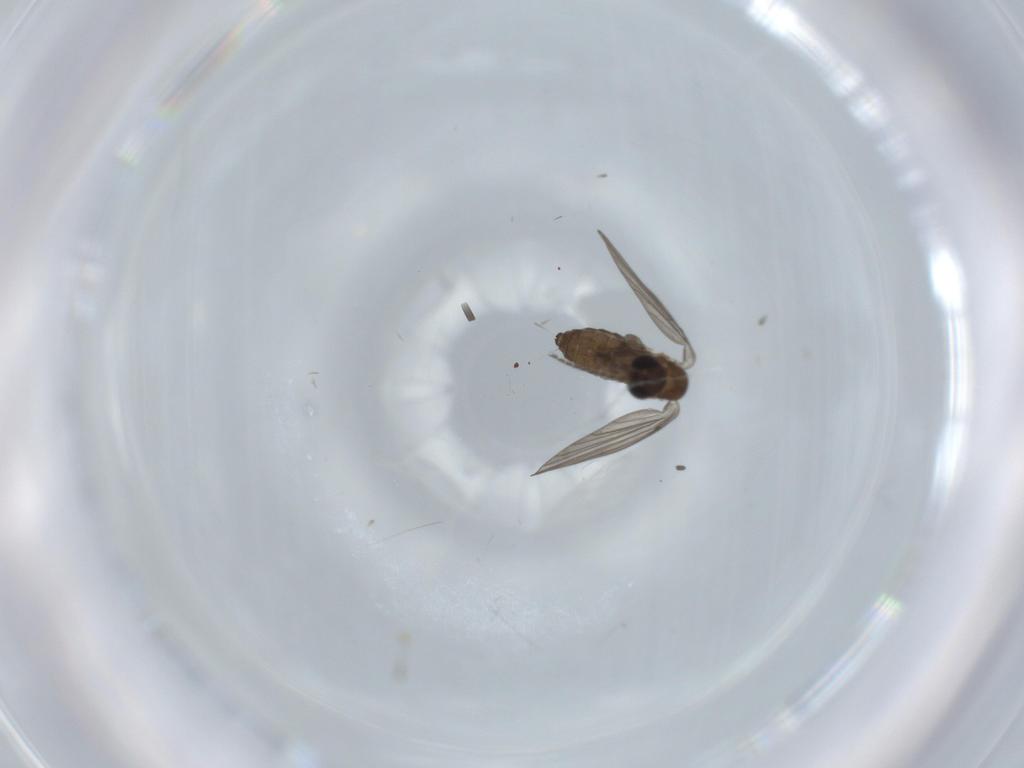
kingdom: Animalia
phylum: Arthropoda
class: Insecta
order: Diptera
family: Psychodidae
